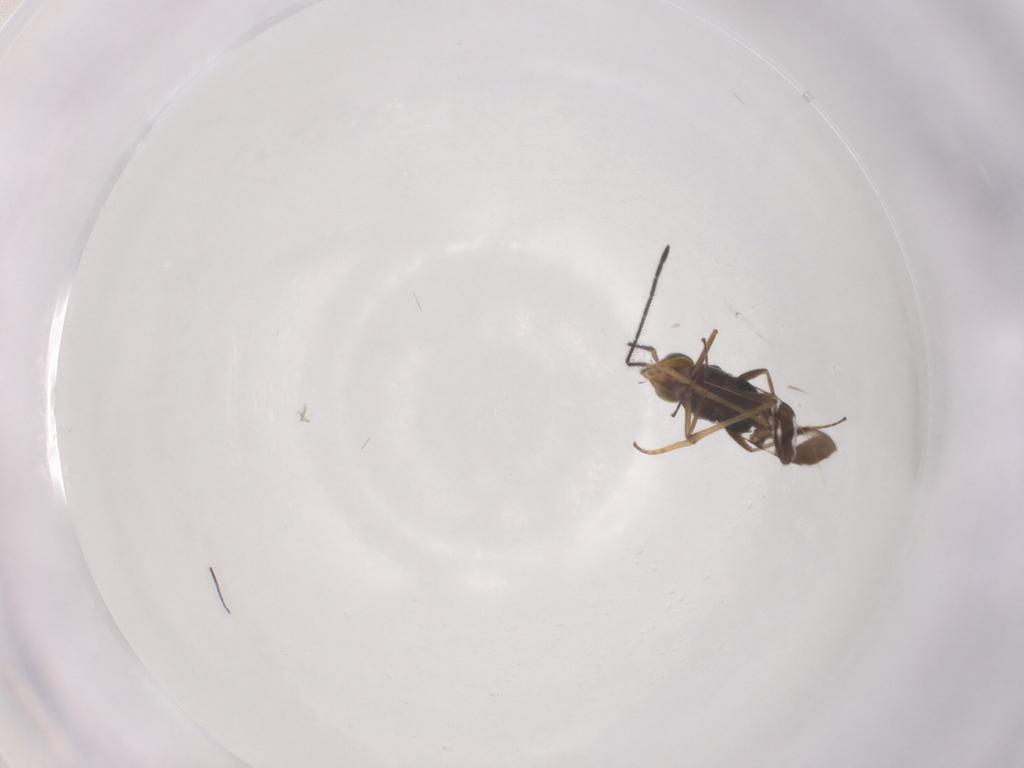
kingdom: Animalia
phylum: Arthropoda
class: Insecta
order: Hymenoptera
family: Encyrtidae
